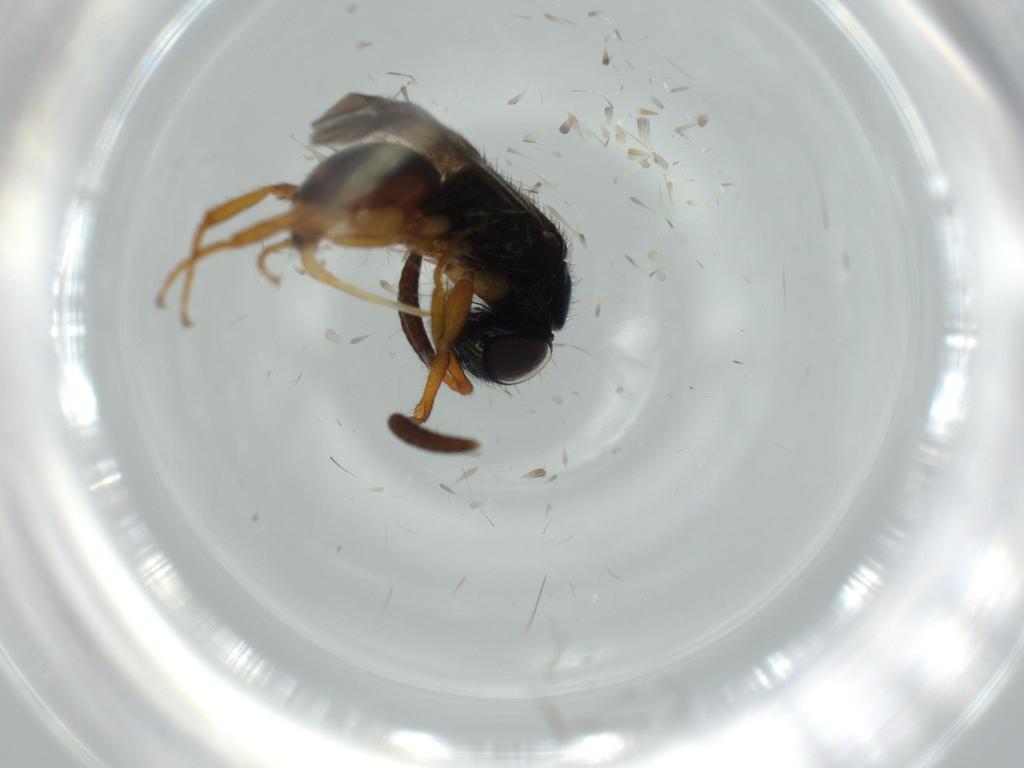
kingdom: Animalia
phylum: Arthropoda
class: Insecta
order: Hymenoptera
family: Chrysididae
